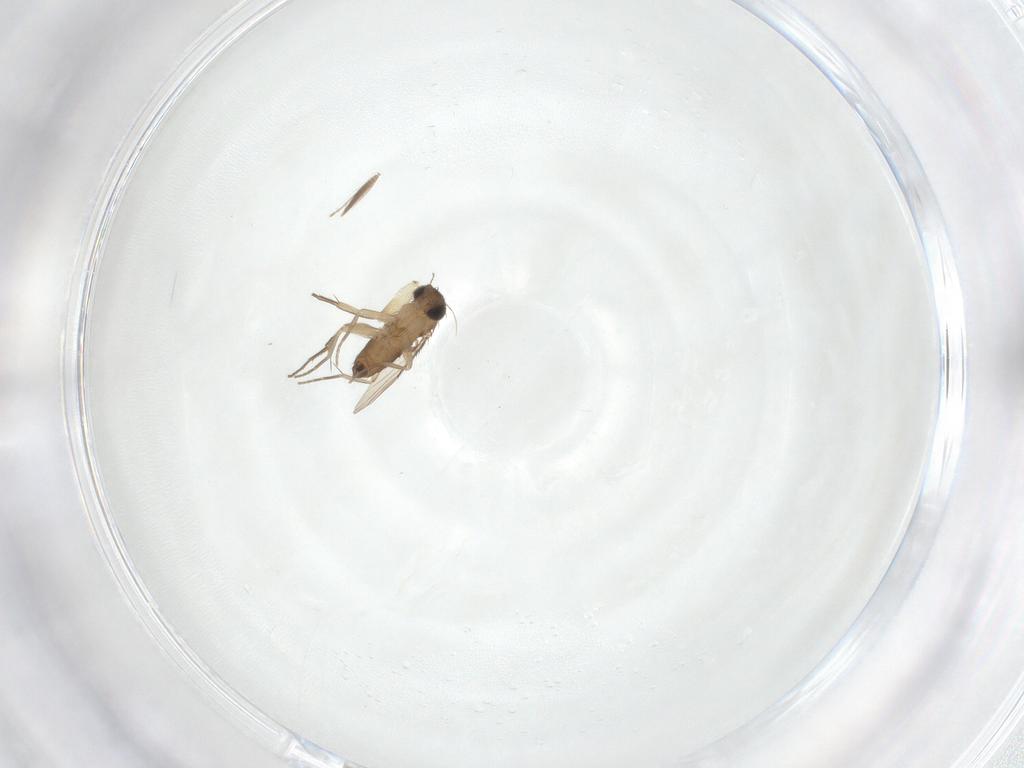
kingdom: Animalia
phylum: Arthropoda
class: Insecta
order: Diptera
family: Phoridae
